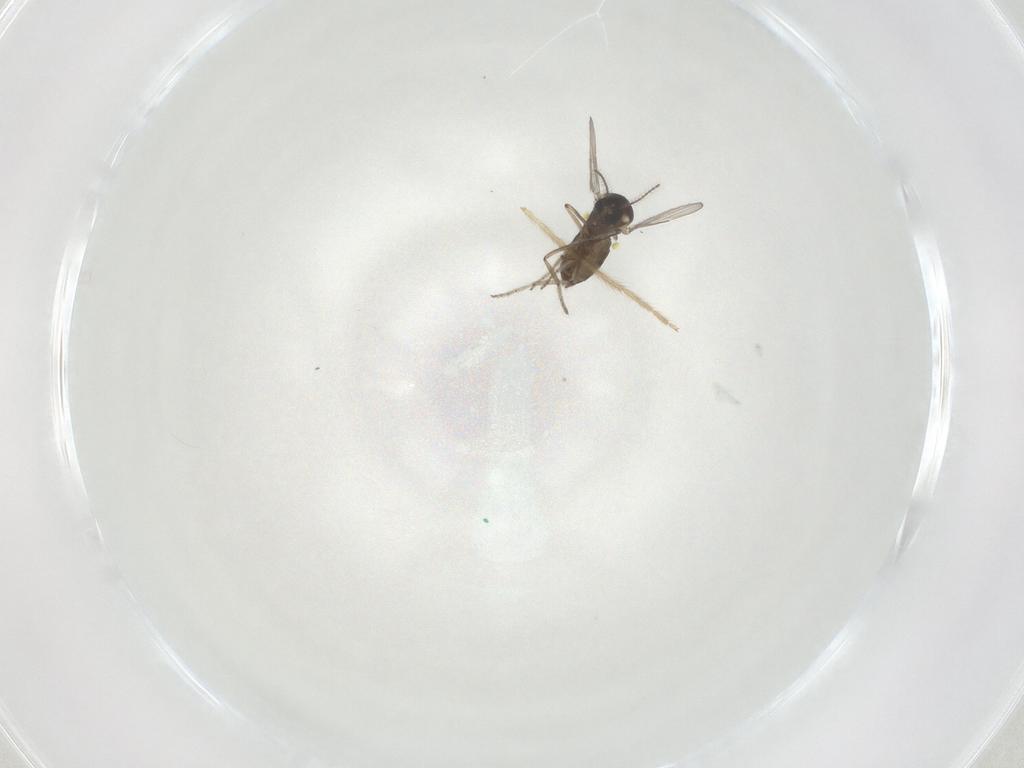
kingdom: Animalia
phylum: Arthropoda
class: Insecta
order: Diptera
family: Ceratopogonidae
